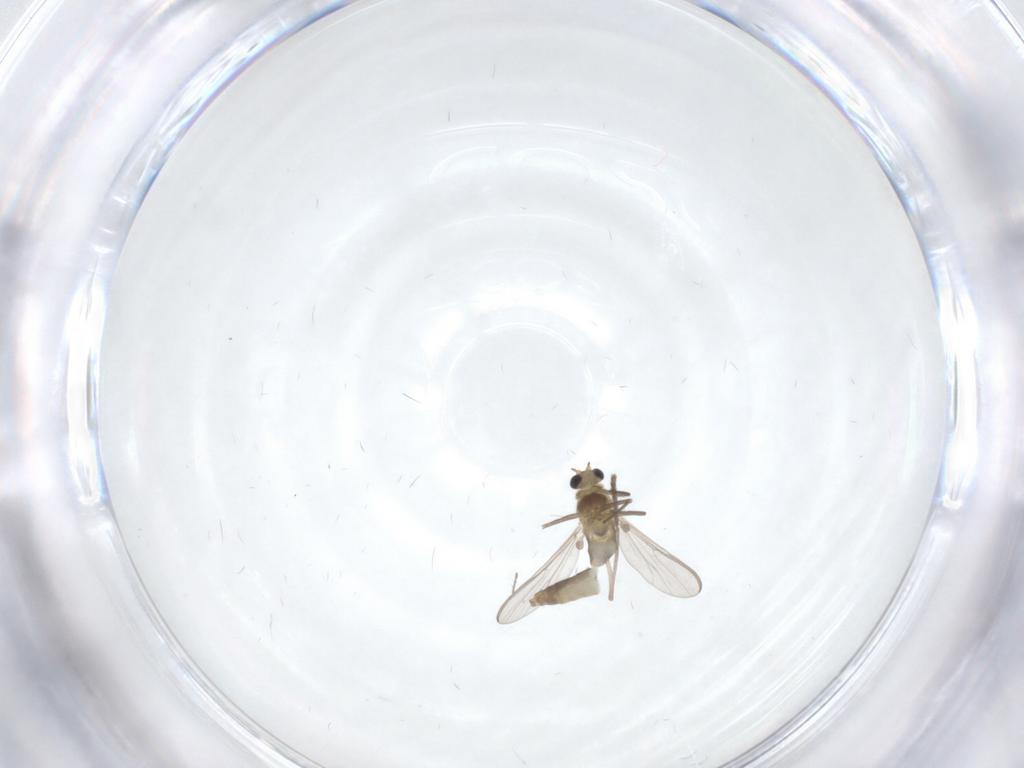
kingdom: Animalia
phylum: Arthropoda
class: Insecta
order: Diptera
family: Chironomidae
